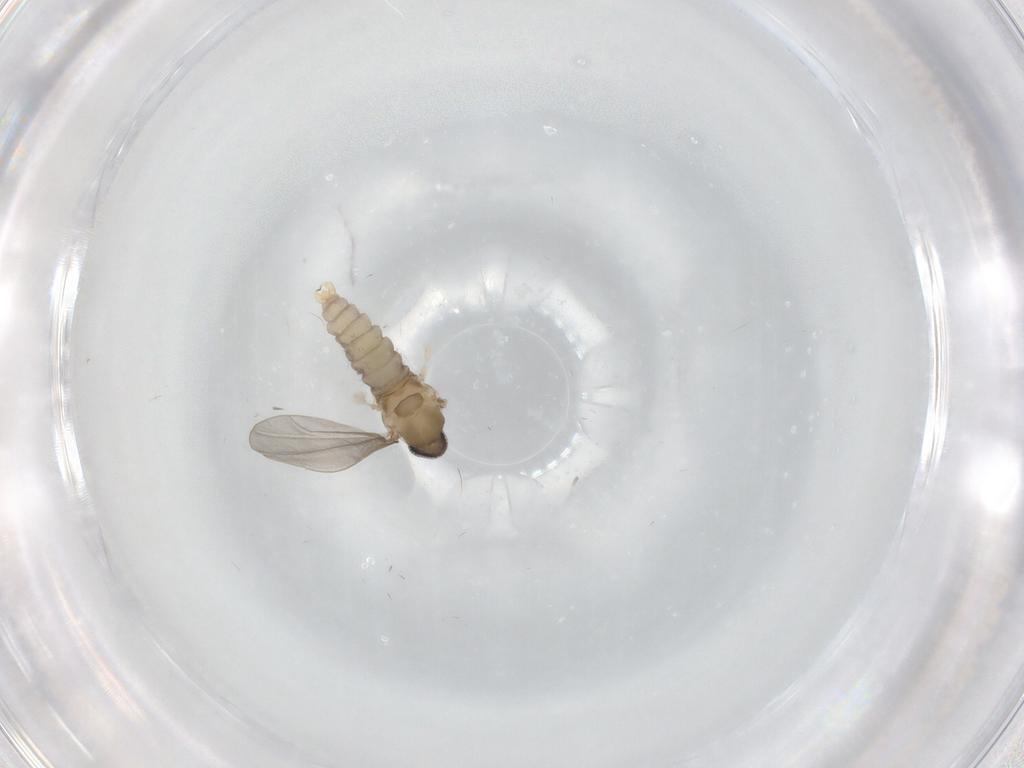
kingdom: Animalia
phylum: Arthropoda
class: Insecta
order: Diptera
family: Cecidomyiidae
